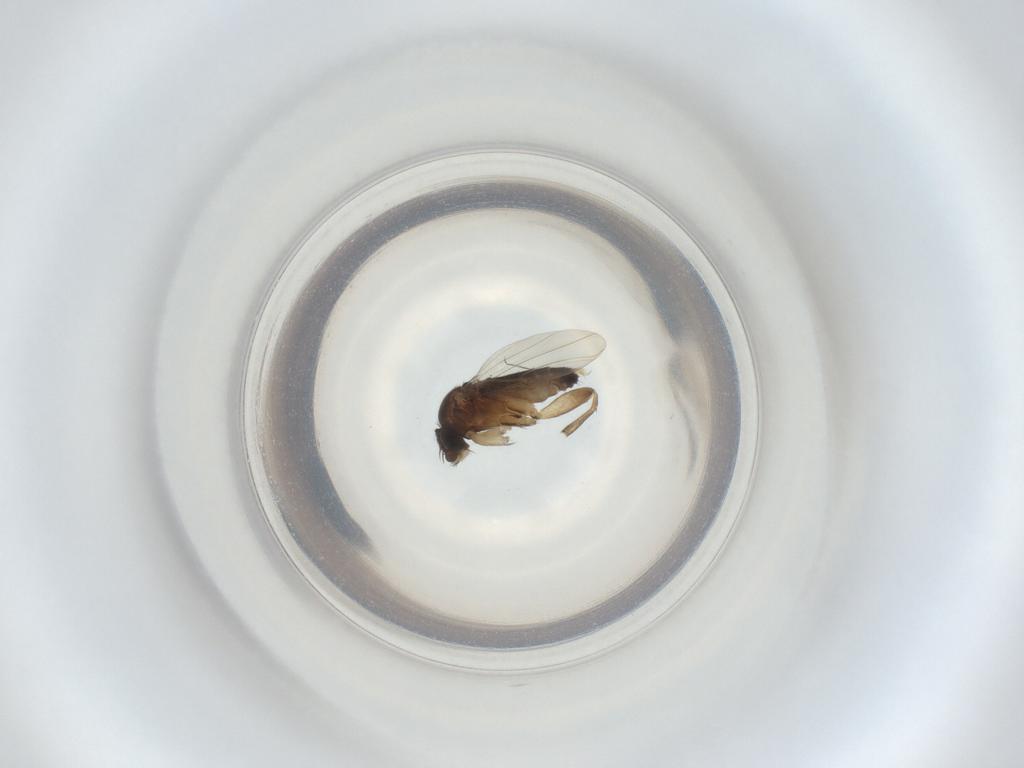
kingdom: Animalia
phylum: Arthropoda
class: Insecta
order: Diptera
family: Phoridae
